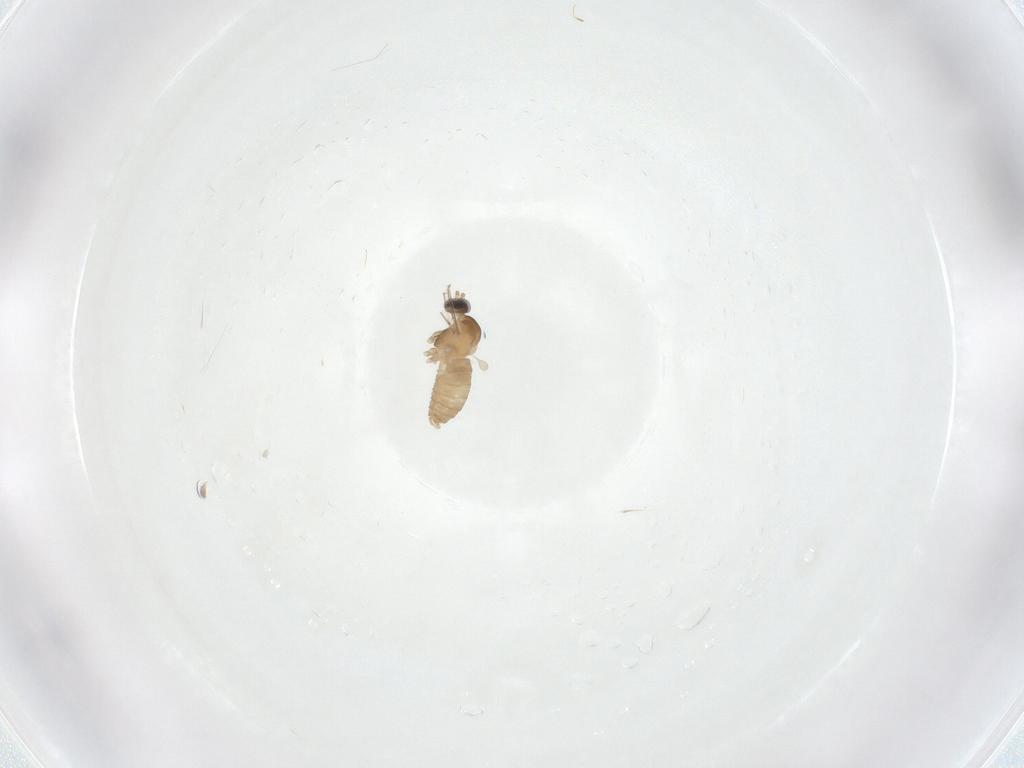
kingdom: Animalia
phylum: Arthropoda
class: Insecta
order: Diptera
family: Cecidomyiidae
